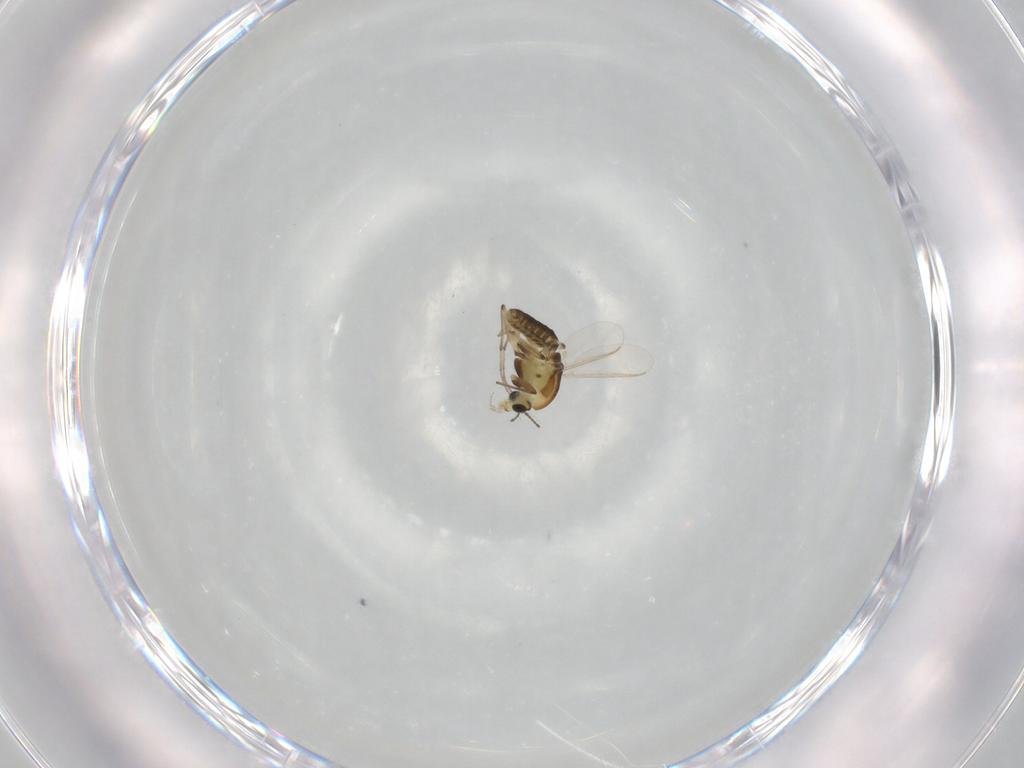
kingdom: Animalia
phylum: Arthropoda
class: Insecta
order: Diptera
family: Chironomidae
